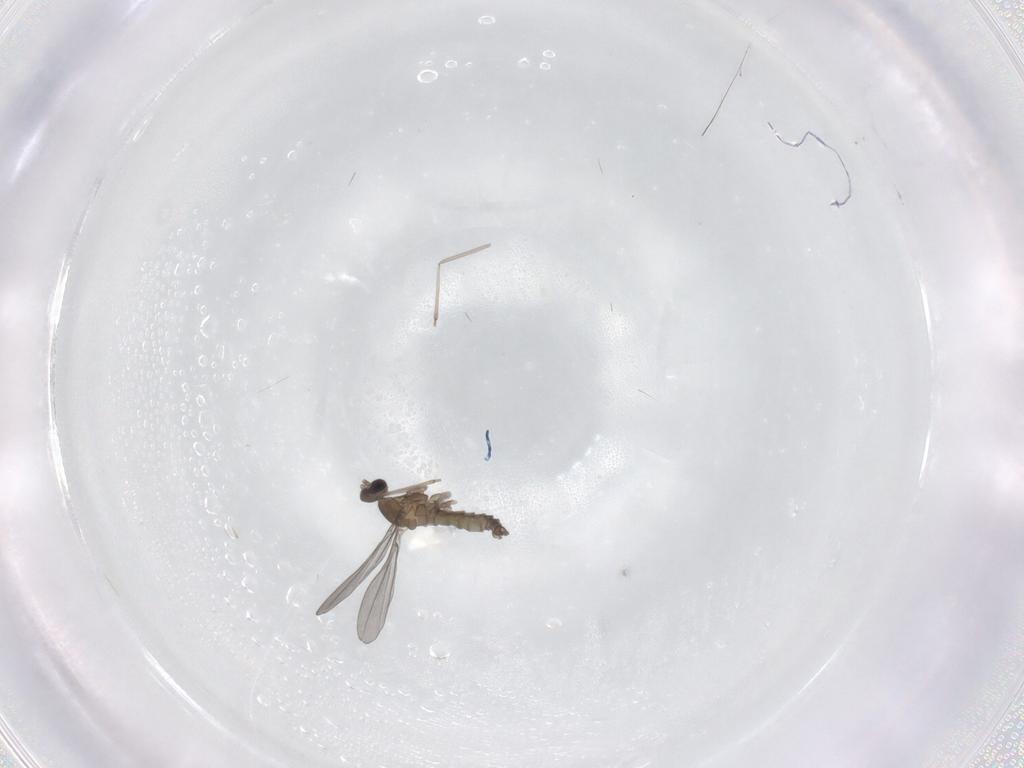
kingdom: Animalia
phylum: Arthropoda
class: Insecta
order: Diptera
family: Cecidomyiidae
